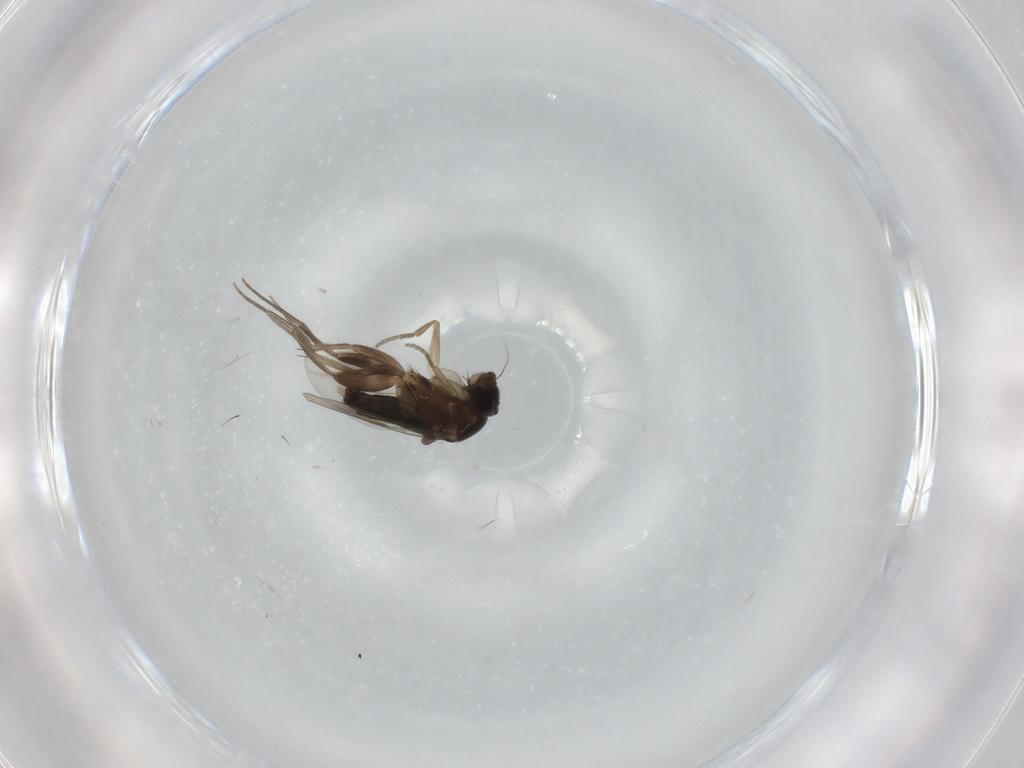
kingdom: Animalia
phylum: Arthropoda
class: Insecta
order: Diptera
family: Phoridae
